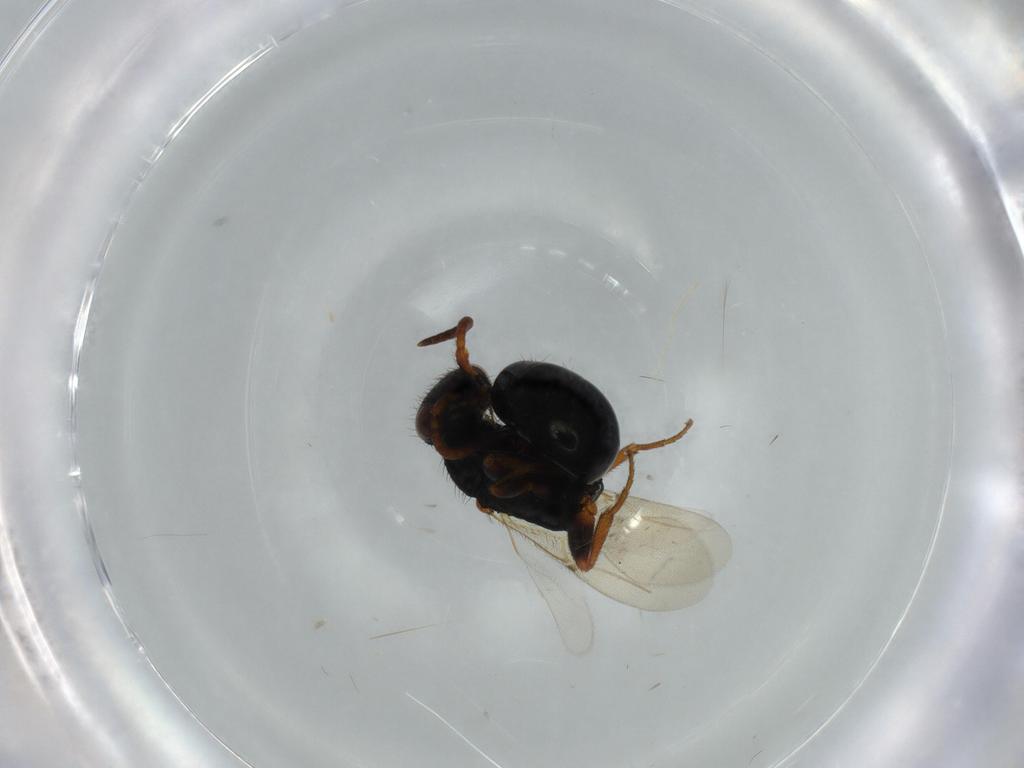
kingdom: Animalia
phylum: Arthropoda
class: Insecta
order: Hymenoptera
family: Bethylidae
